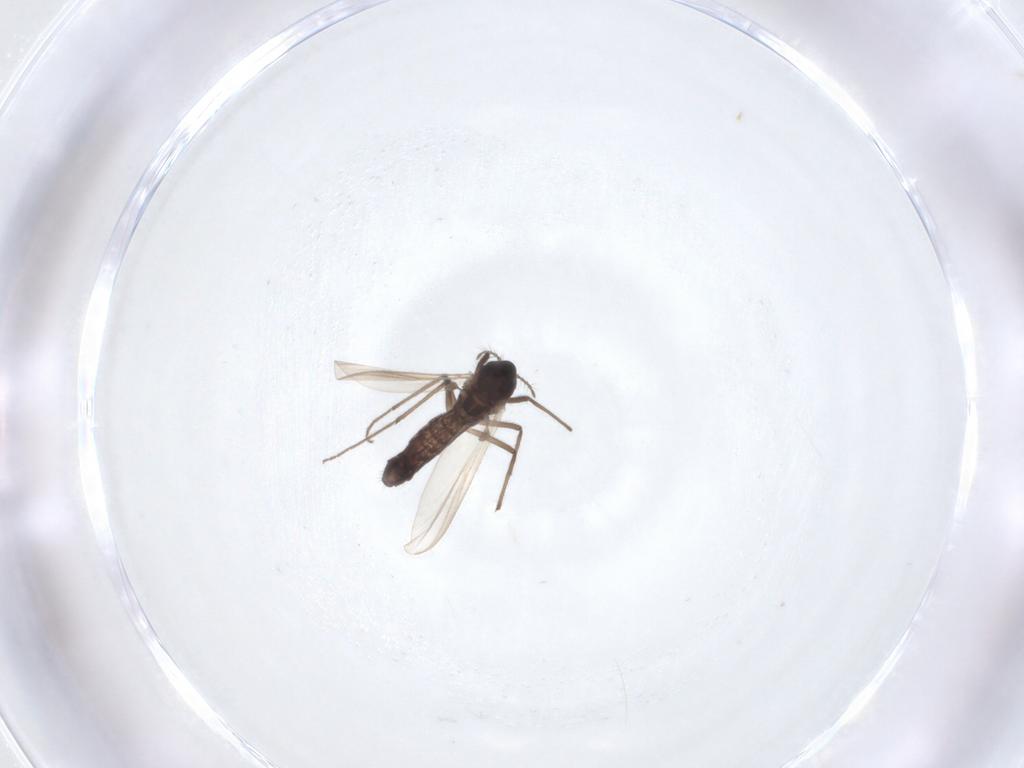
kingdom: Animalia
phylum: Arthropoda
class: Insecta
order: Diptera
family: Chironomidae
